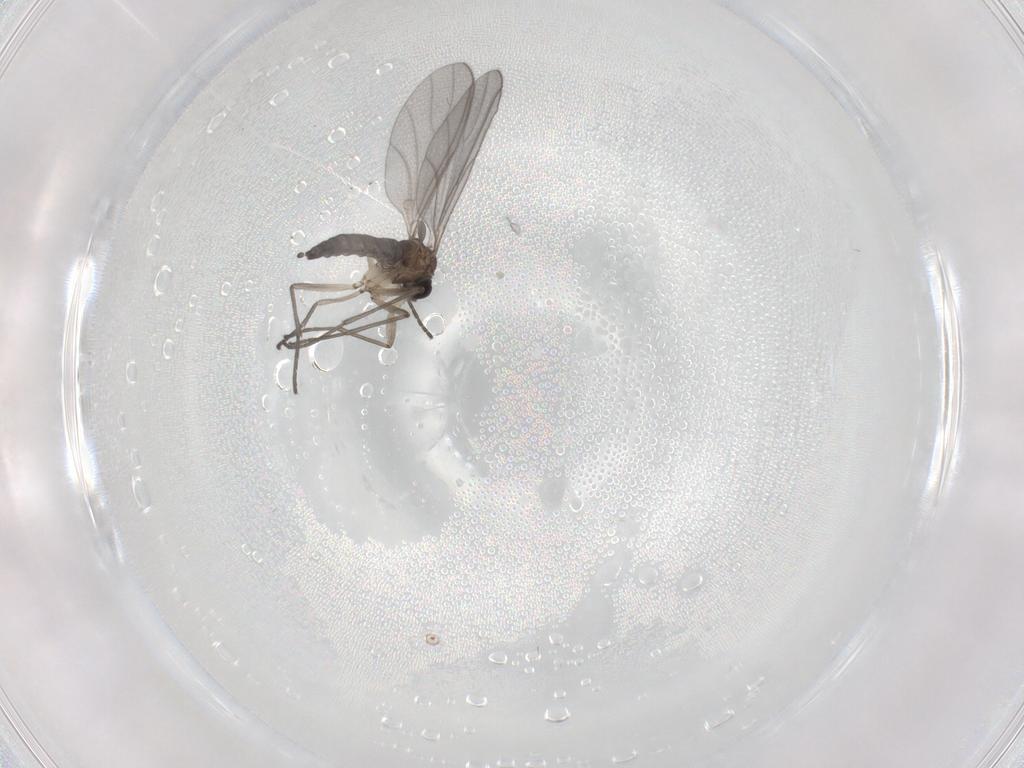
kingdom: Animalia
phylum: Arthropoda
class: Insecta
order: Diptera
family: Sciaridae
